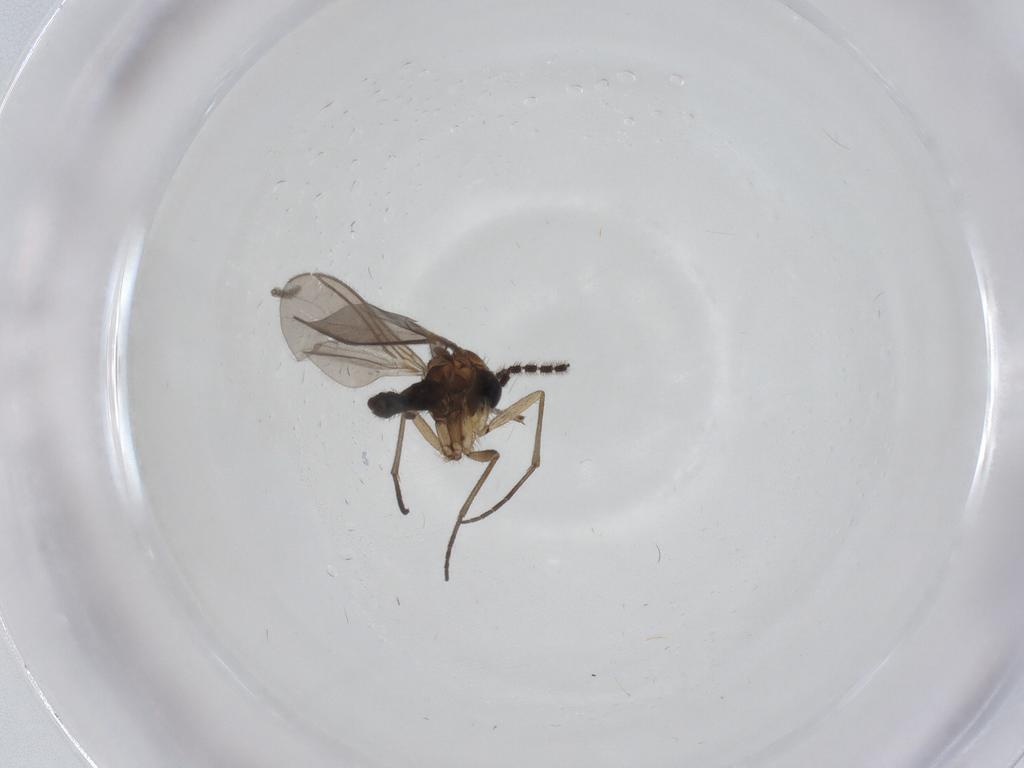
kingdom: Animalia
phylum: Arthropoda
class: Insecta
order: Diptera
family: Sciaridae
